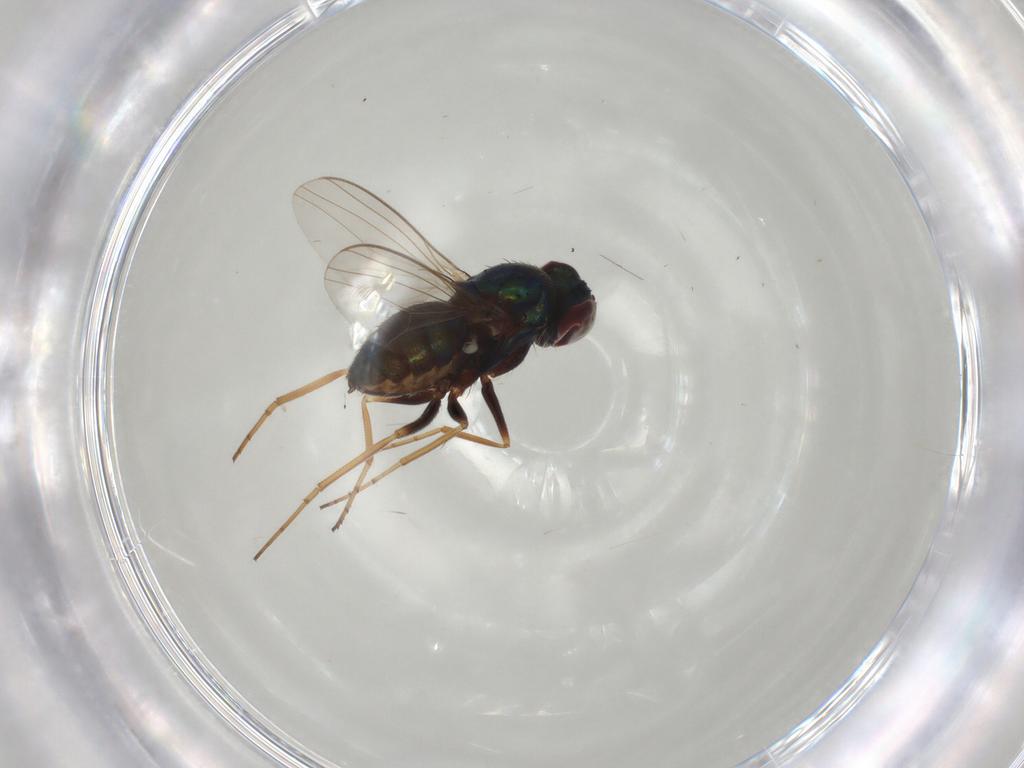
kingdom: Animalia
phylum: Arthropoda
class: Insecta
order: Diptera
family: Dolichopodidae
